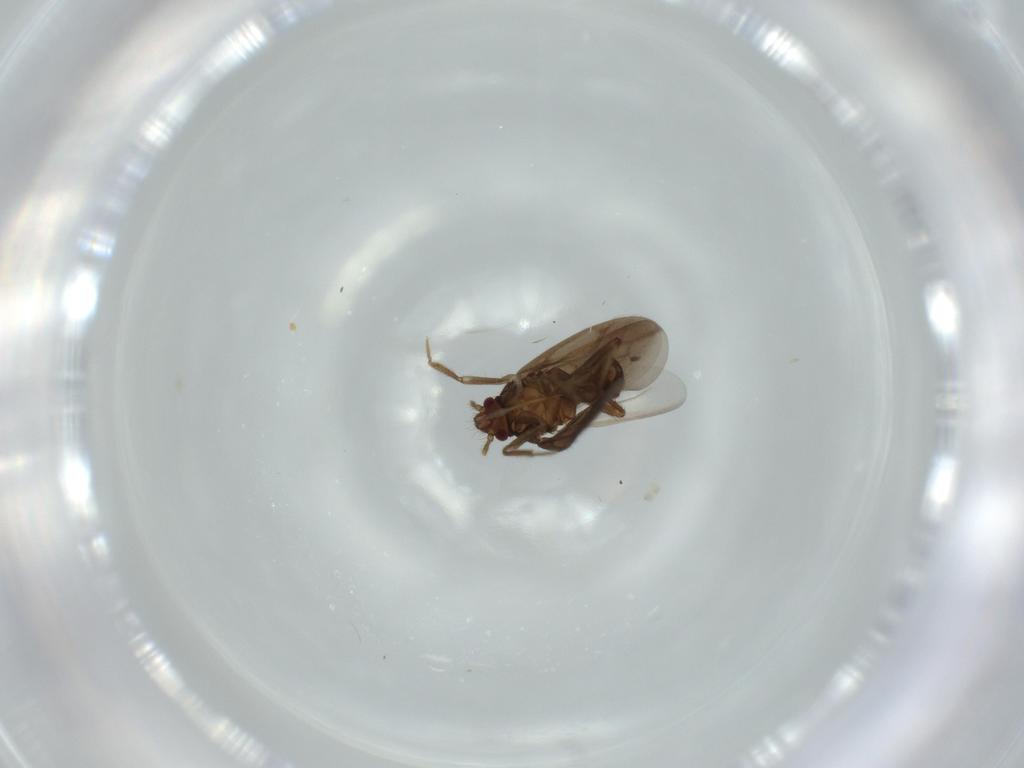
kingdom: Animalia
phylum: Arthropoda
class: Insecta
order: Hemiptera
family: Ceratocombidae
